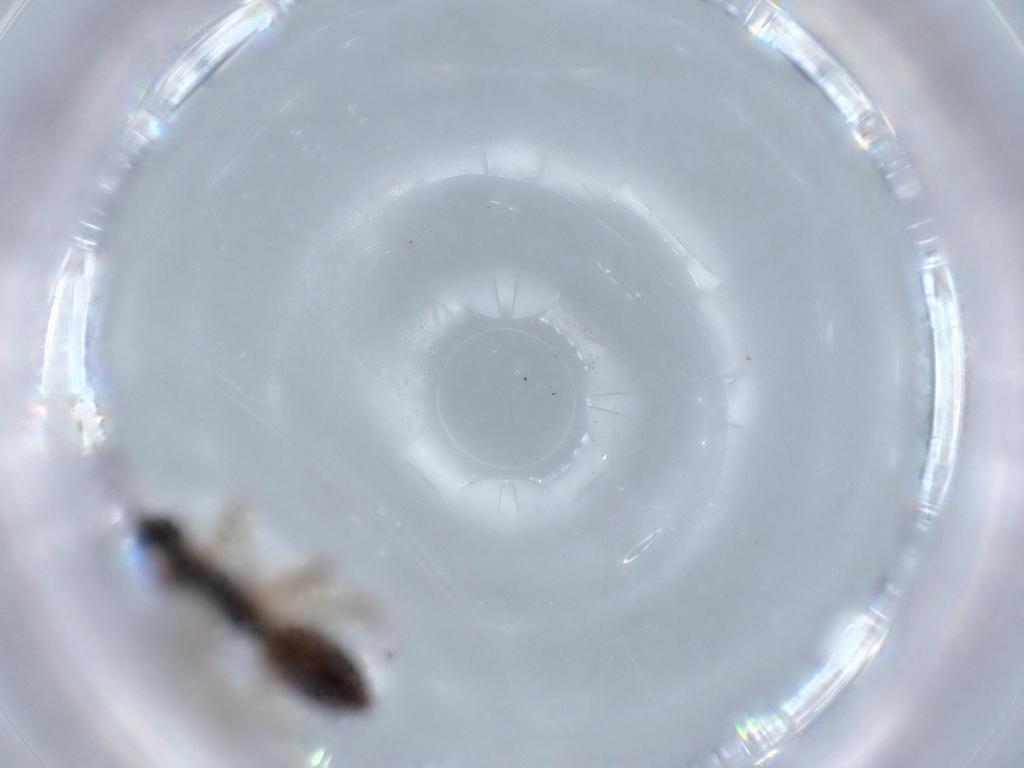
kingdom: Animalia
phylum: Arthropoda
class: Insecta
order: Hymenoptera
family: Braconidae
